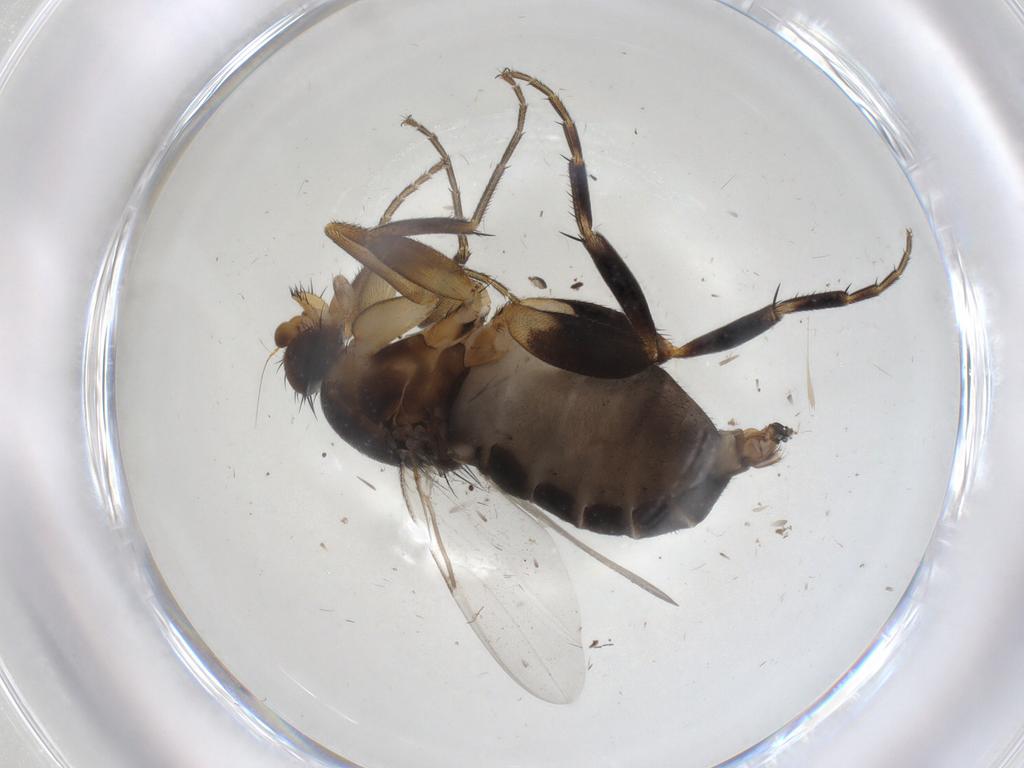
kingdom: Animalia
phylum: Arthropoda
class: Insecta
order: Diptera
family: Phoridae
